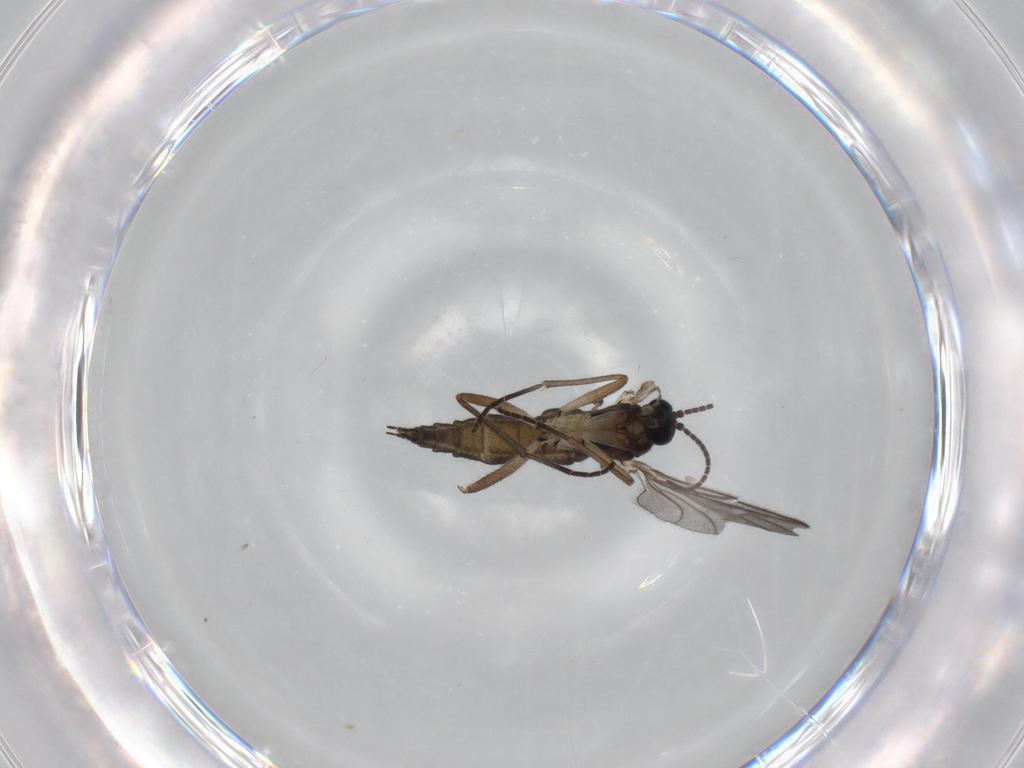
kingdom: Animalia
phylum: Arthropoda
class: Insecta
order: Diptera
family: Sciaridae
